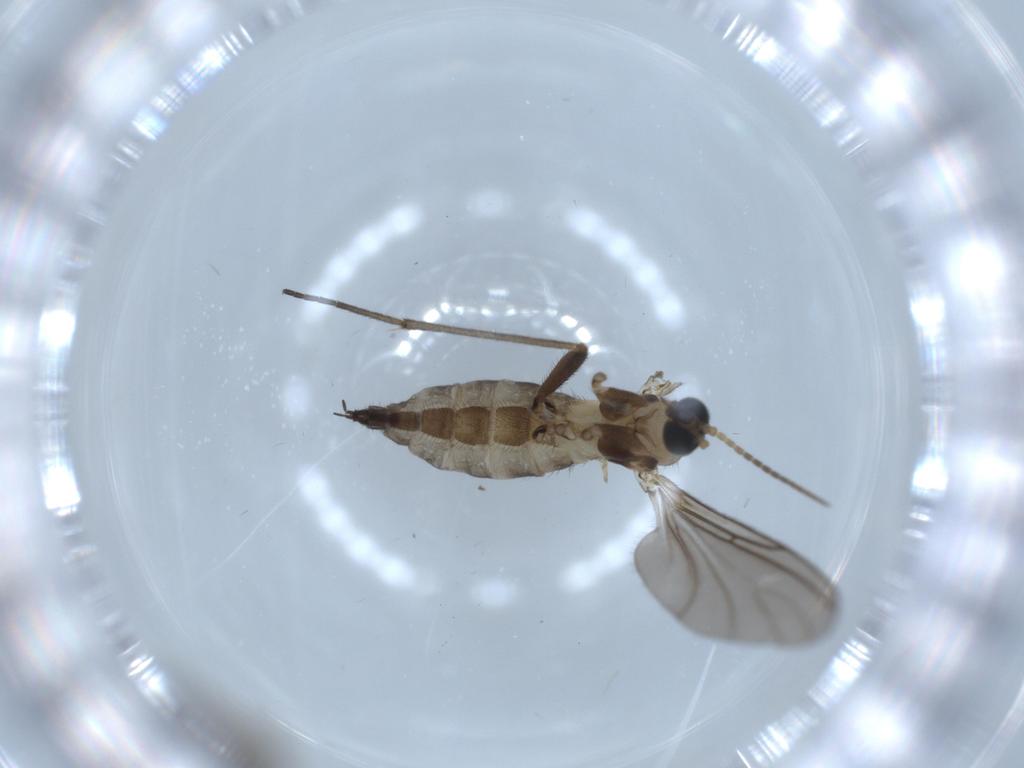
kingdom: Animalia
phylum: Arthropoda
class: Insecta
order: Diptera
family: Sciaridae
